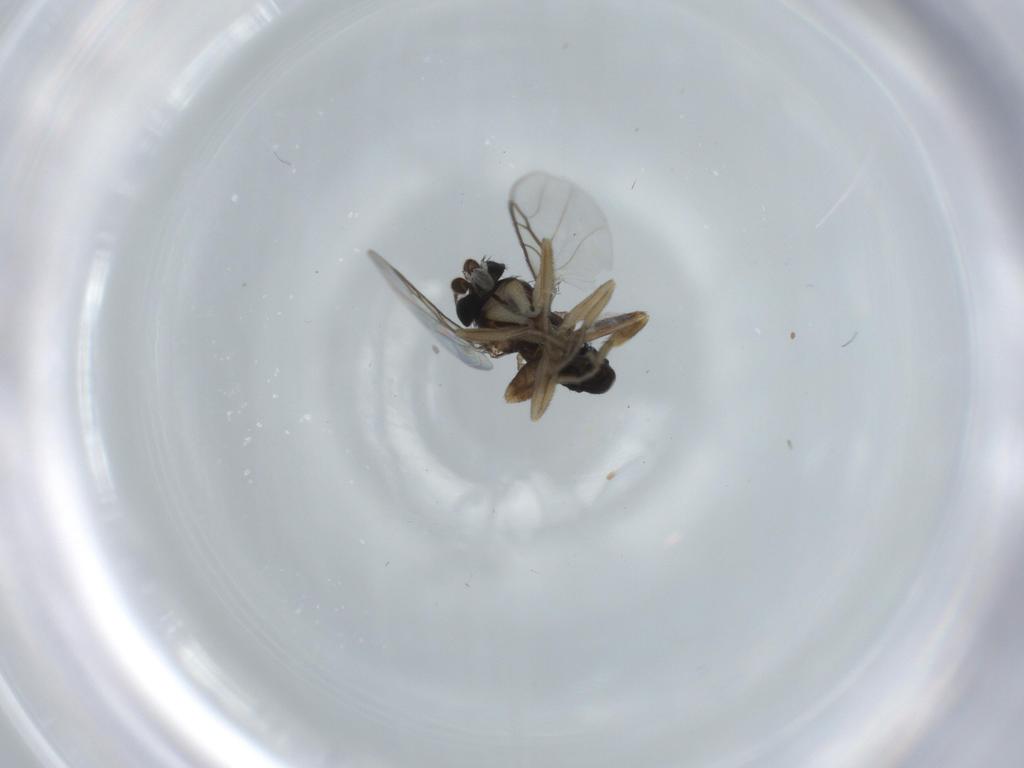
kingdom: Animalia
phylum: Arthropoda
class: Insecta
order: Diptera
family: Phoridae
